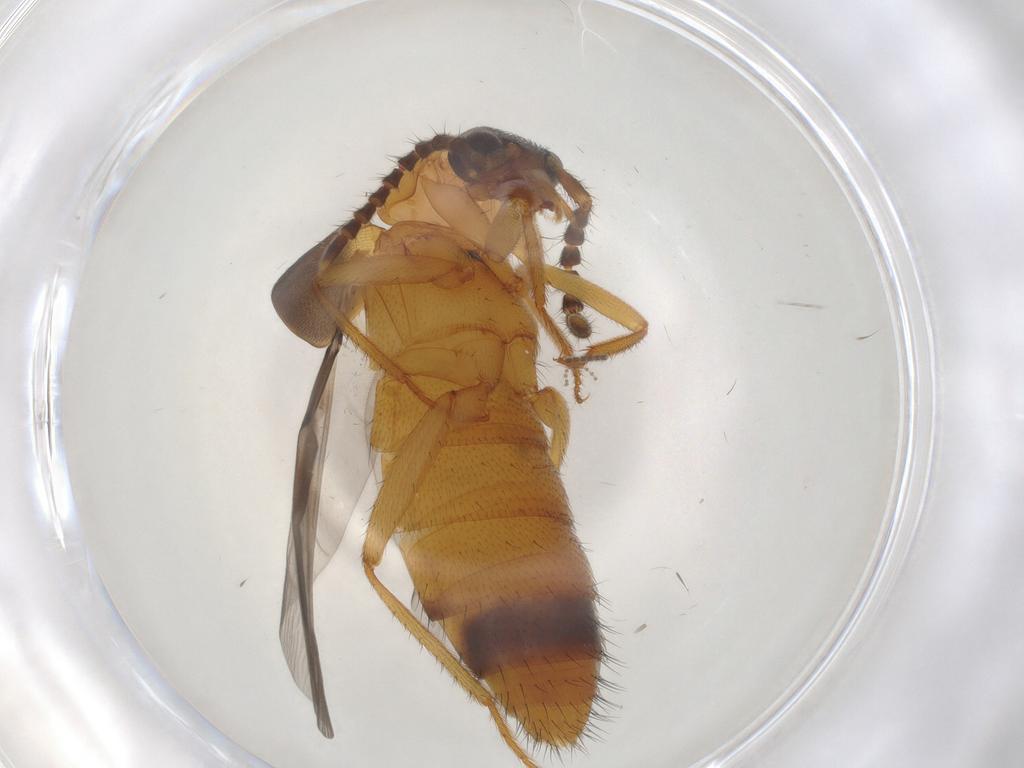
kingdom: Animalia
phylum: Arthropoda
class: Insecta
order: Coleoptera
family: Staphylinidae
